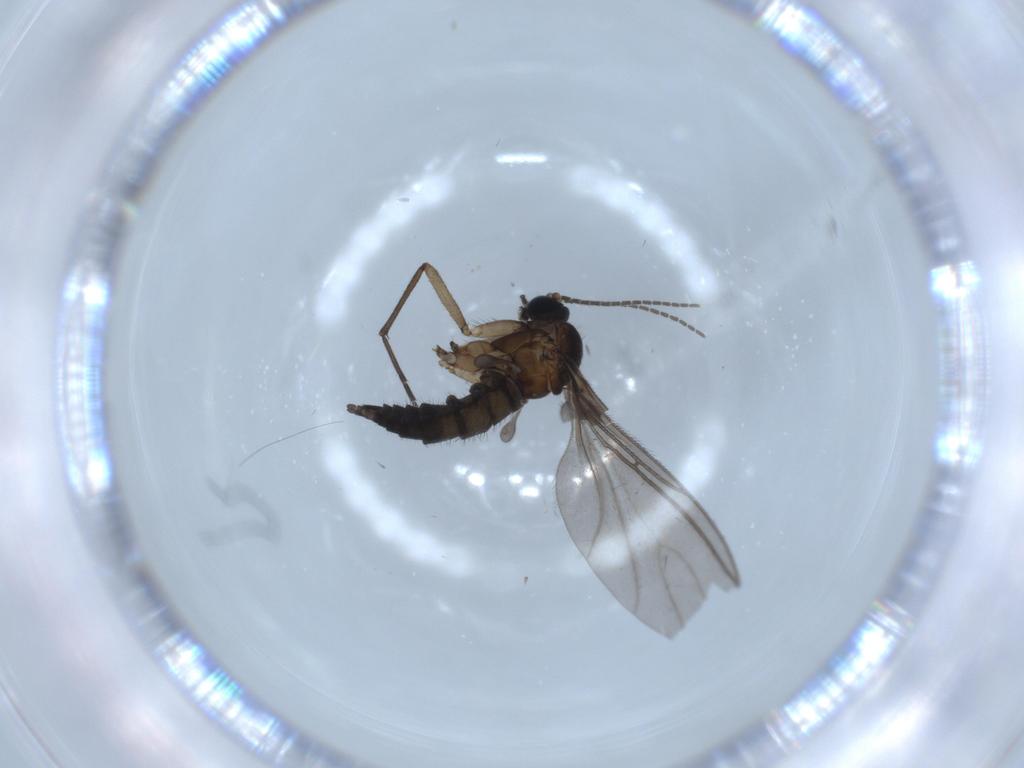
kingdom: Animalia
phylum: Arthropoda
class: Insecta
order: Diptera
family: Sciaridae
